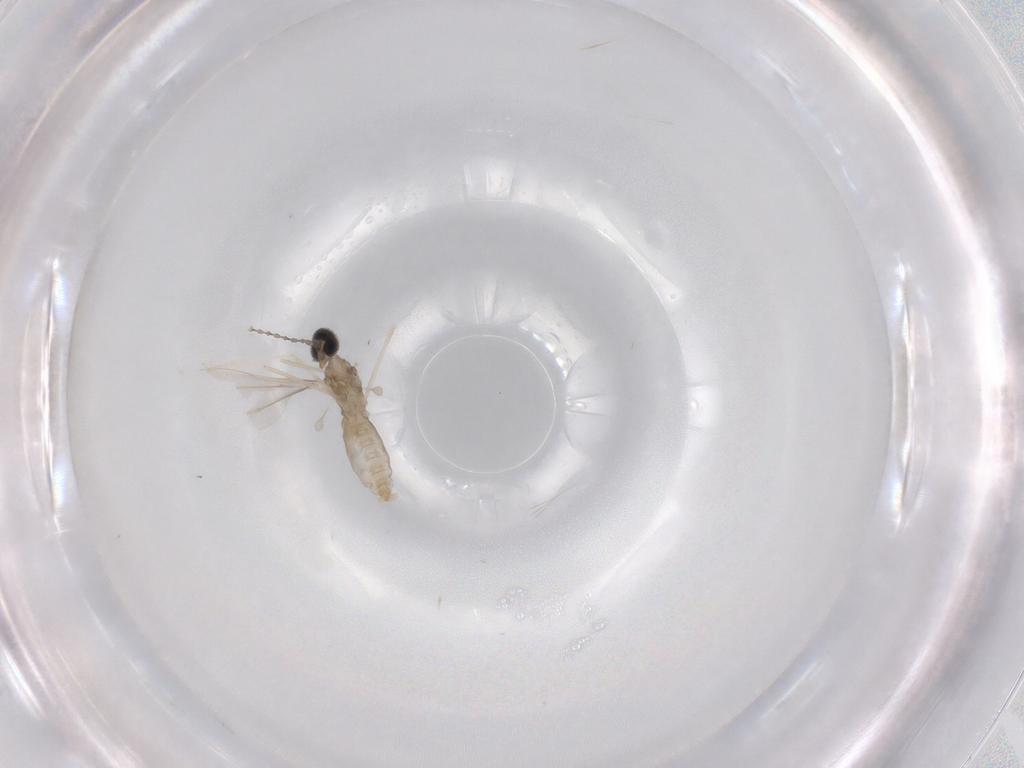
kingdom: Animalia
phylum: Arthropoda
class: Insecta
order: Diptera
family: Cecidomyiidae
